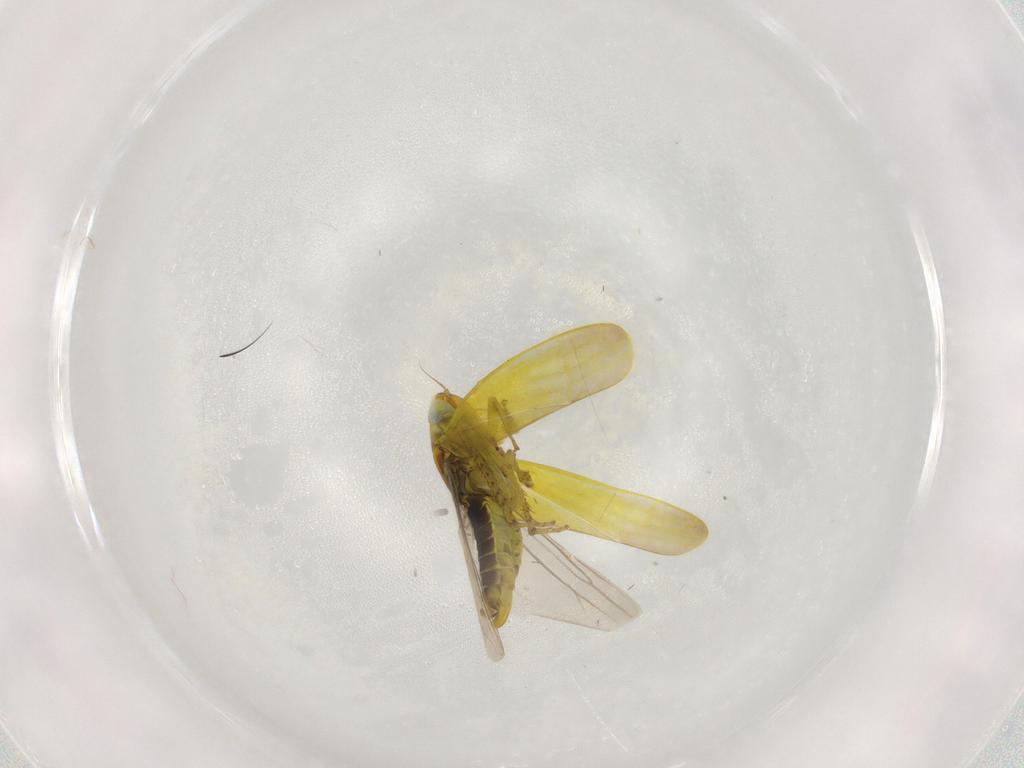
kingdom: Animalia
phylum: Arthropoda
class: Insecta
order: Hemiptera
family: Cicadellidae
